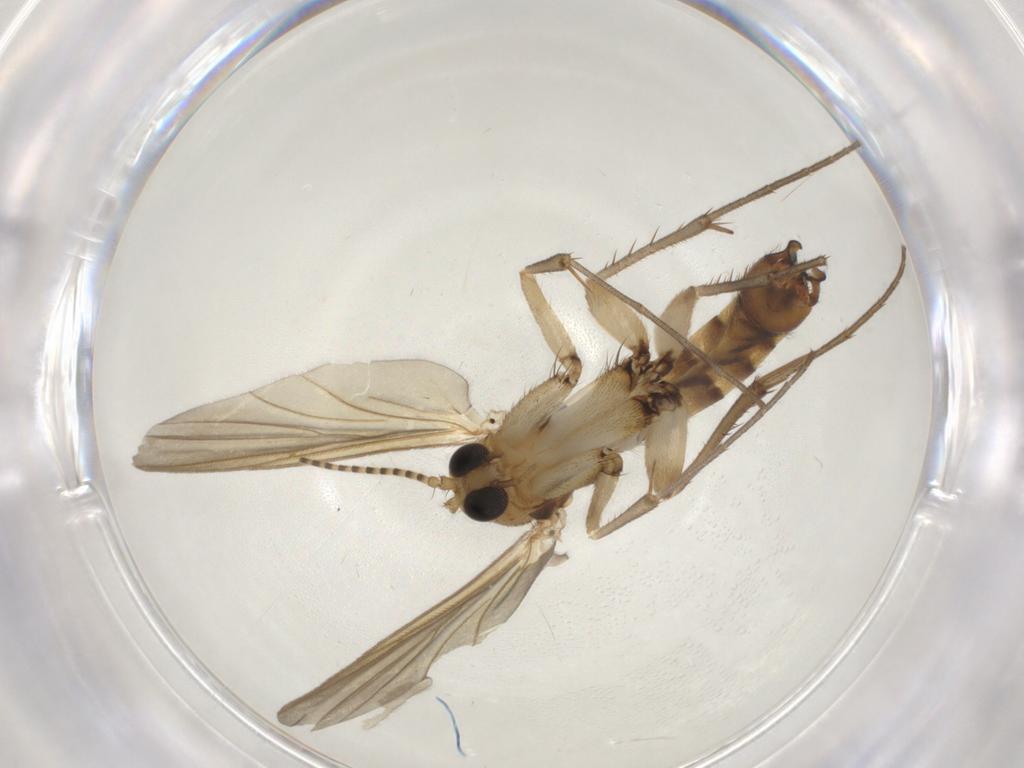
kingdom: Animalia
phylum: Arthropoda
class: Insecta
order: Diptera
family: Mycetophilidae
